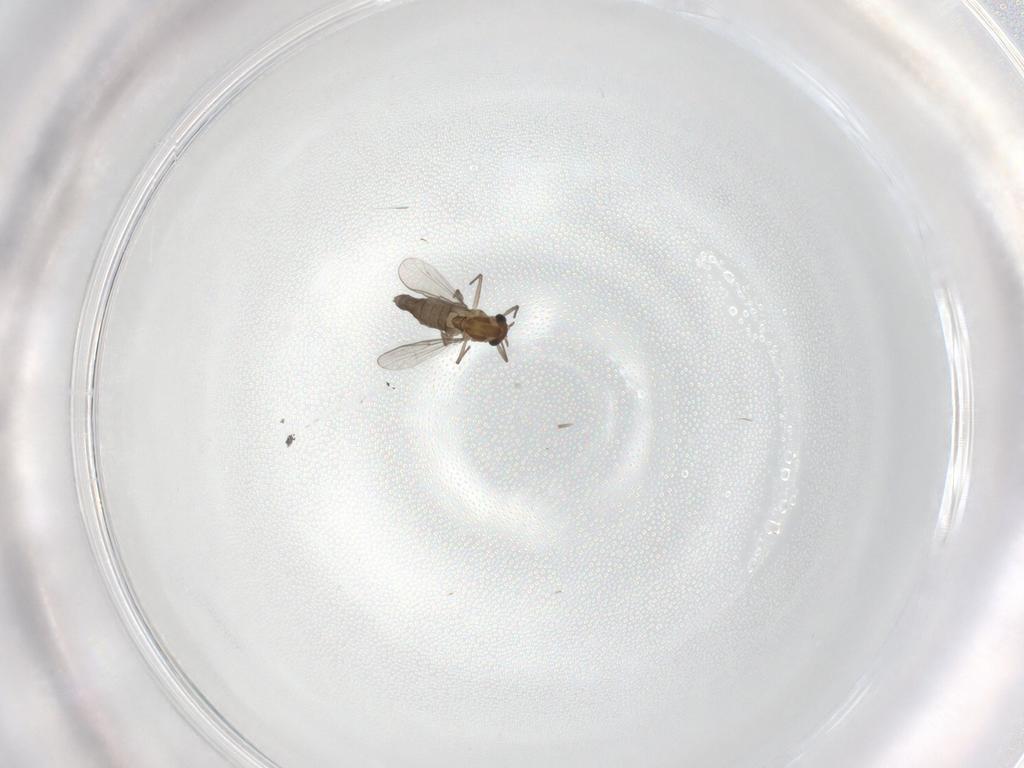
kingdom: Animalia
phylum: Arthropoda
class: Insecta
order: Diptera
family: Chironomidae
